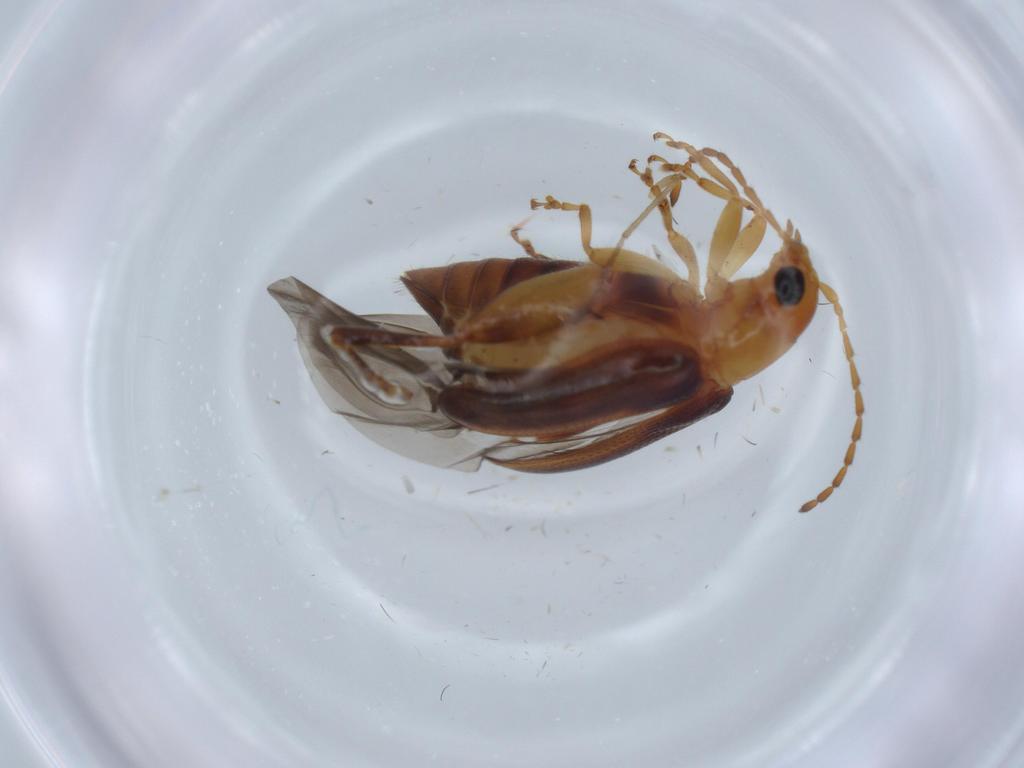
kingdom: Animalia
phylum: Arthropoda
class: Insecta
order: Coleoptera
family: Chrysomelidae
